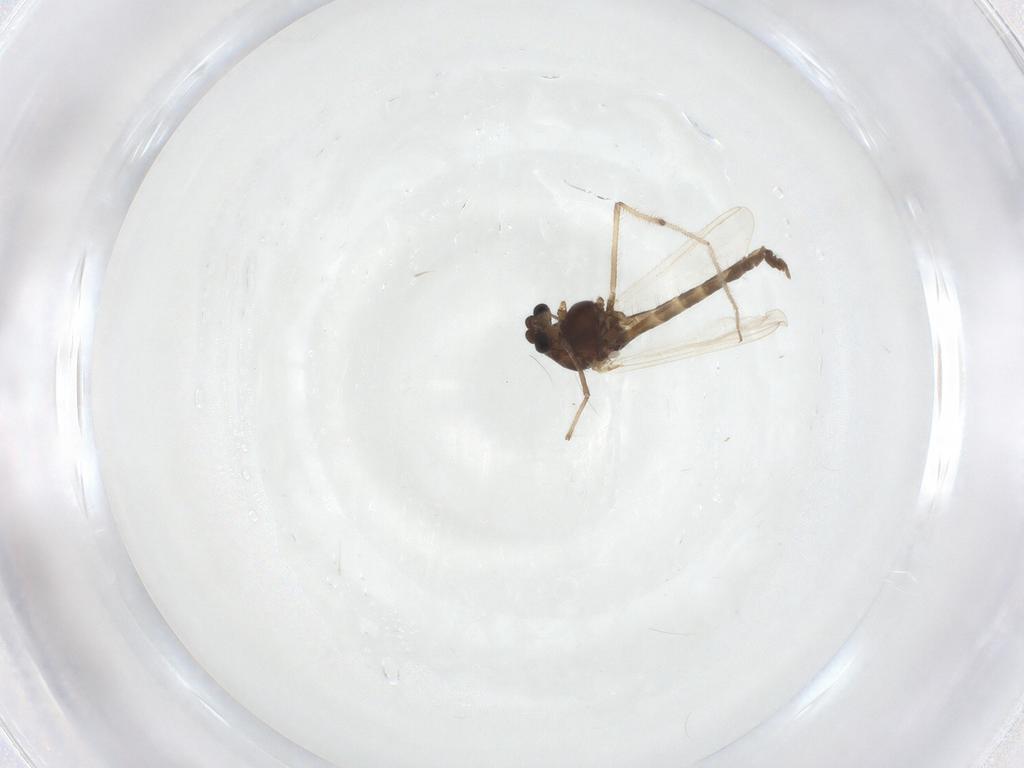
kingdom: Animalia
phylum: Arthropoda
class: Insecta
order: Diptera
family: Chironomidae
